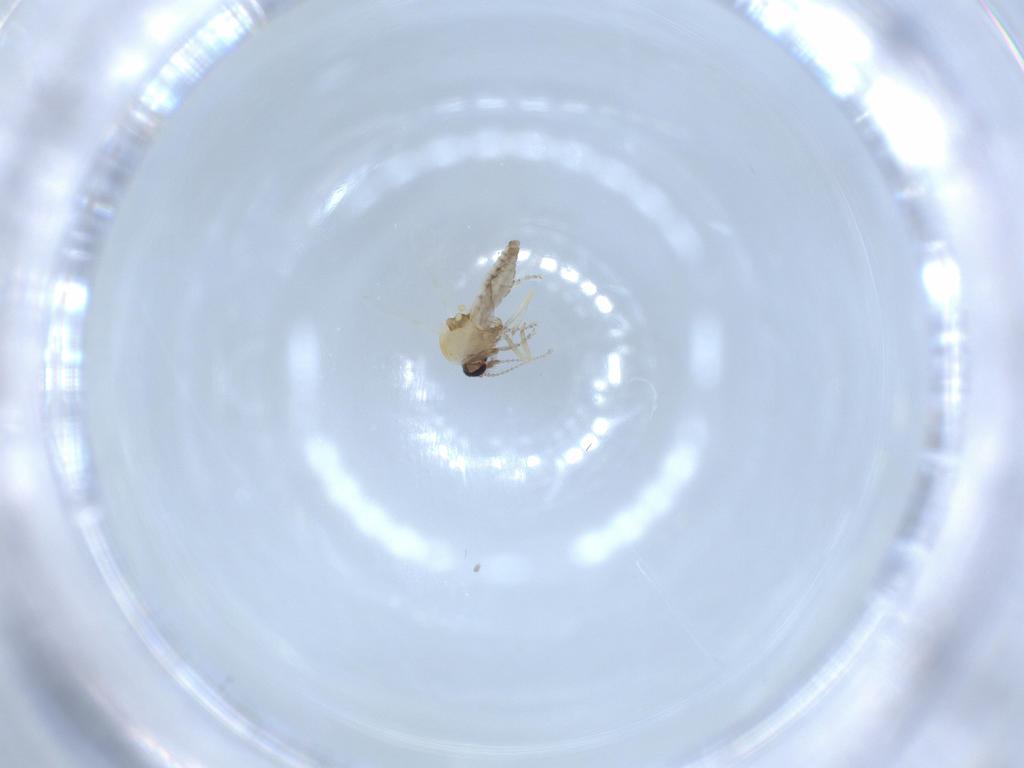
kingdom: Animalia
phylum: Arthropoda
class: Insecta
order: Diptera
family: Ceratopogonidae
